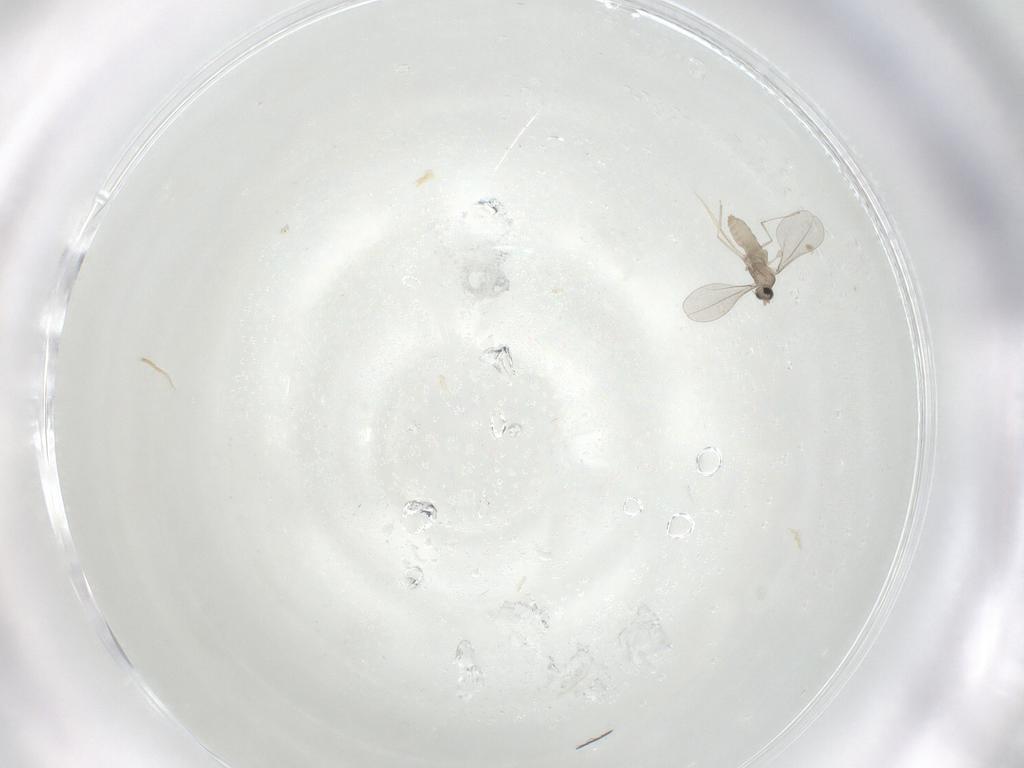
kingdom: Animalia
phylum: Arthropoda
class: Insecta
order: Diptera
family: Cecidomyiidae
